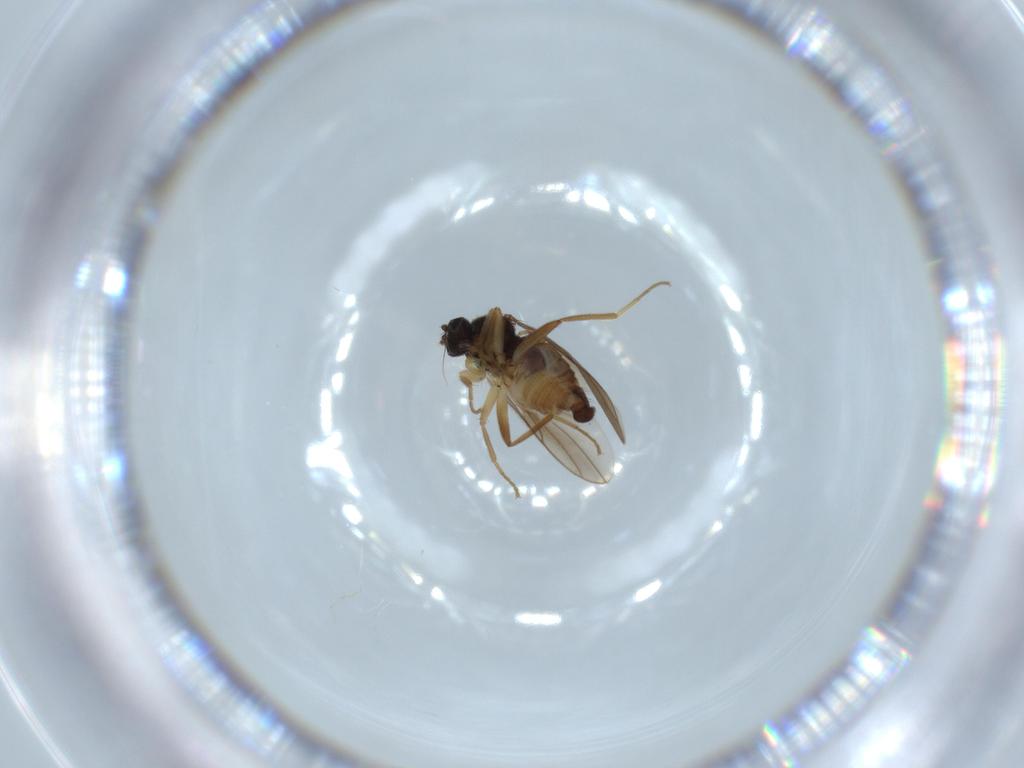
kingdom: Animalia
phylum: Arthropoda
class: Insecta
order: Diptera
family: Hybotidae
